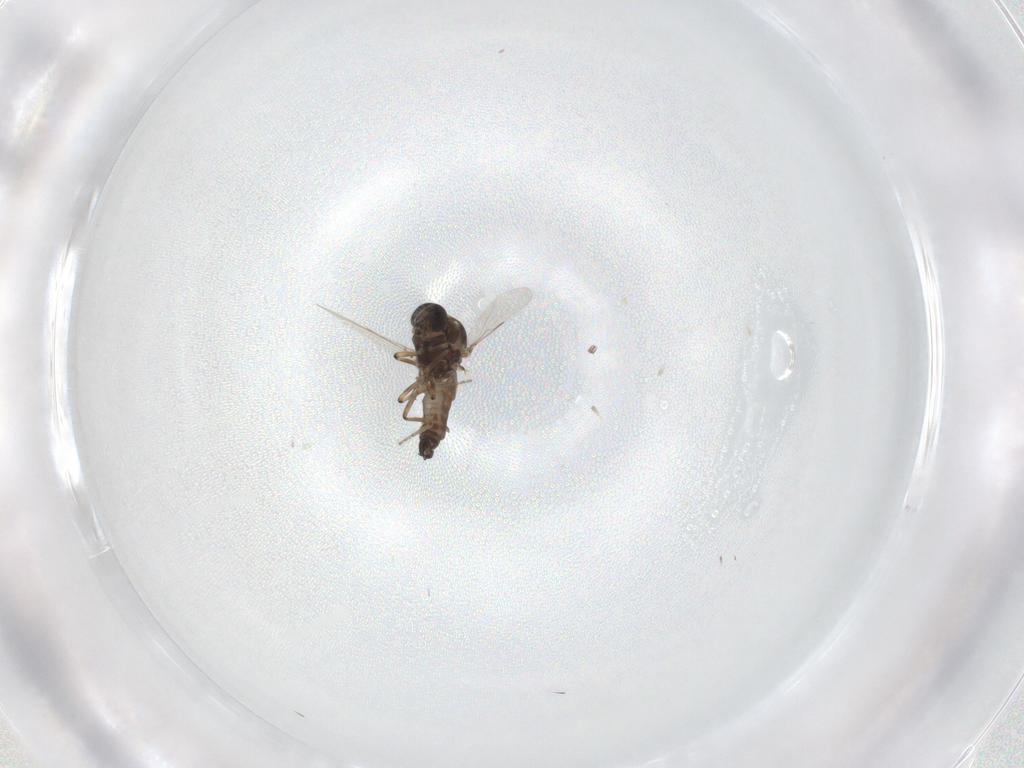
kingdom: Animalia
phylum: Arthropoda
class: Insecta
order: Diptera
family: Ceratopogonidae
